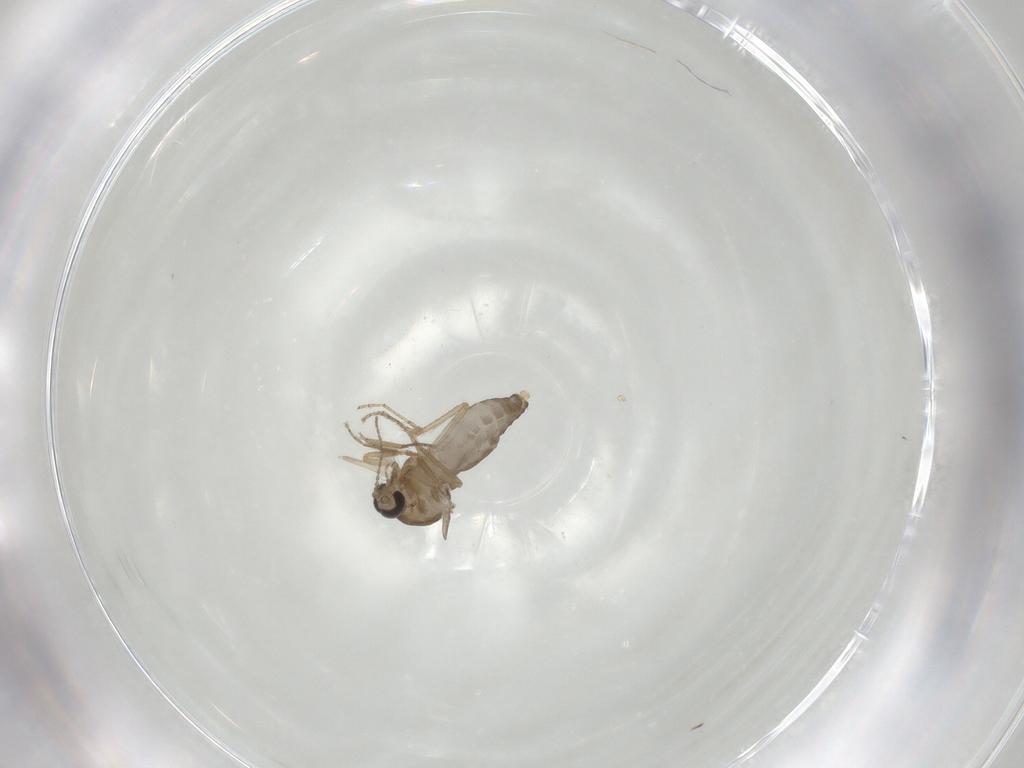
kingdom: Animalia
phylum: Arthropoda
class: Insecta
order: Diptera
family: Ceratopogonidae
